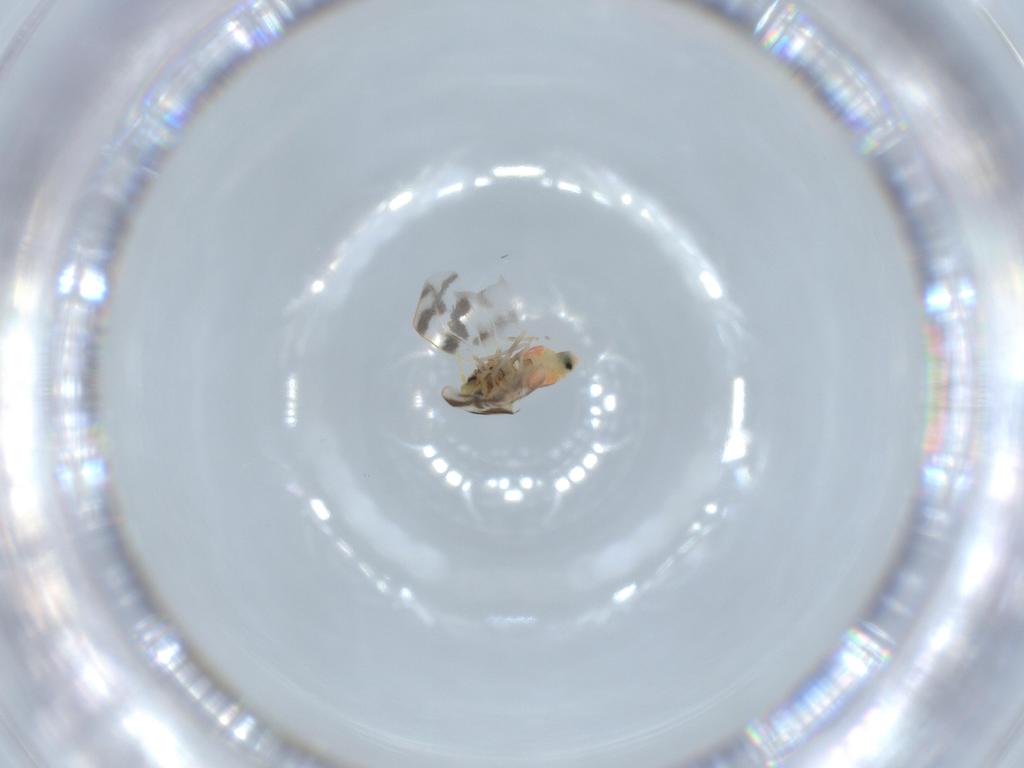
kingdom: Animalia
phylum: Arthropoda
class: Insecta
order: Hemiptera
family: Aleyrodidae
